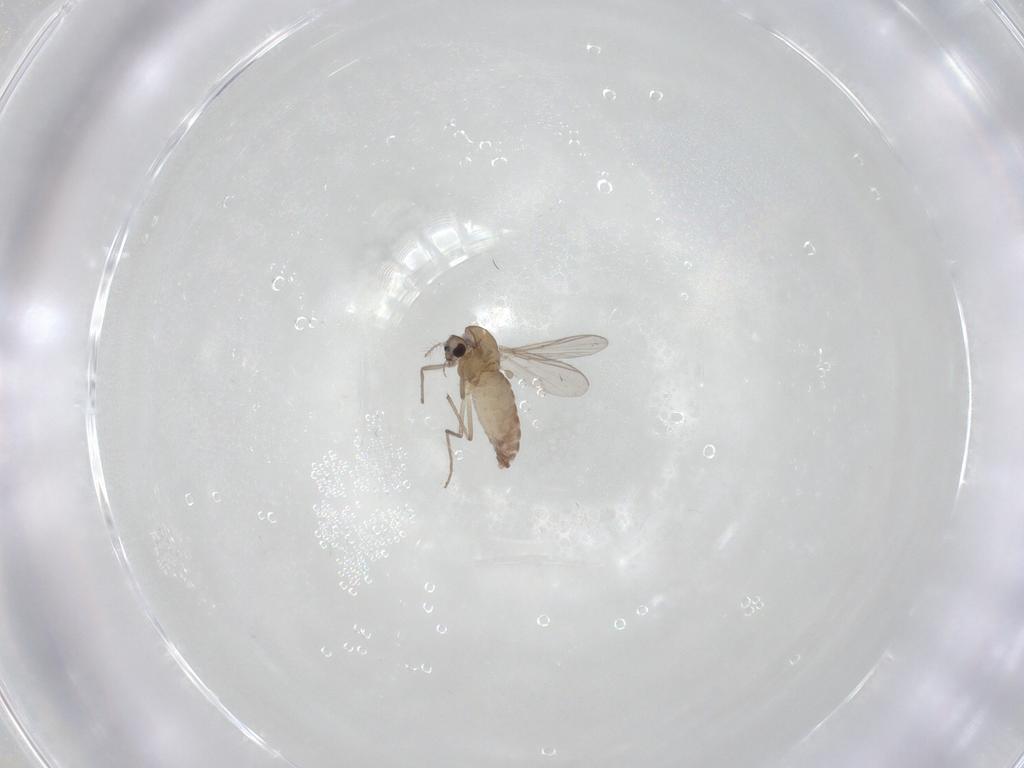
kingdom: Animalia
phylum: Arthropoda
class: Insecta
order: Diptera
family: Chironomidae
